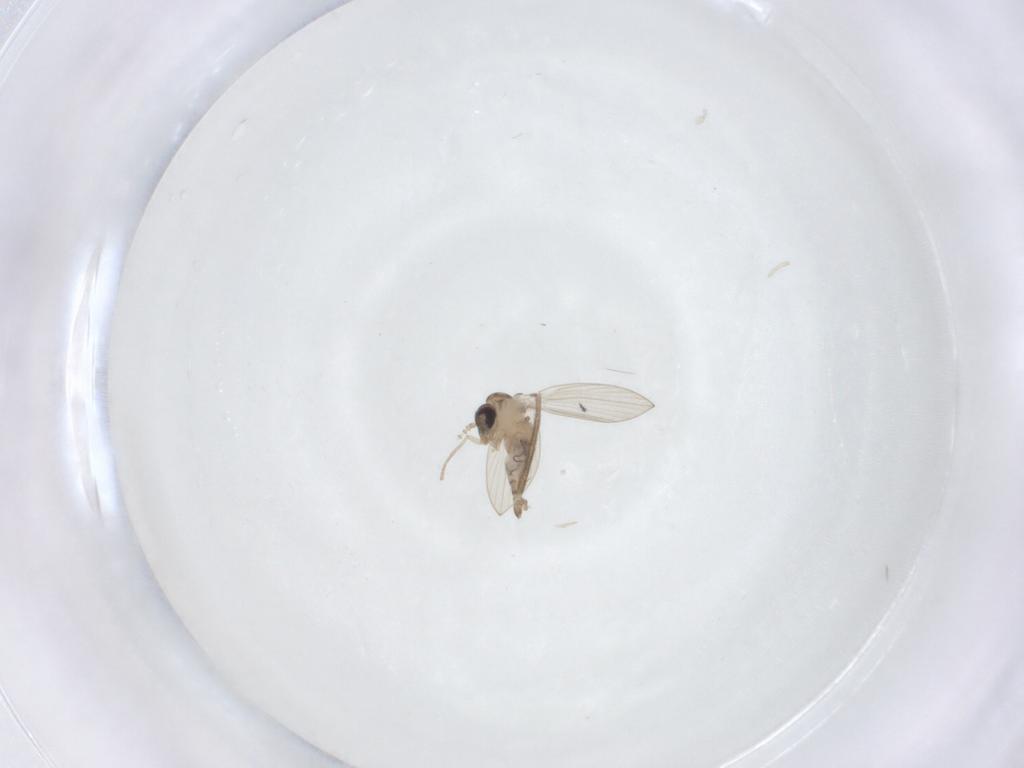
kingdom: Animalia
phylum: Arthropoda
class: Insecta
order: Diptera
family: Psychodidae
